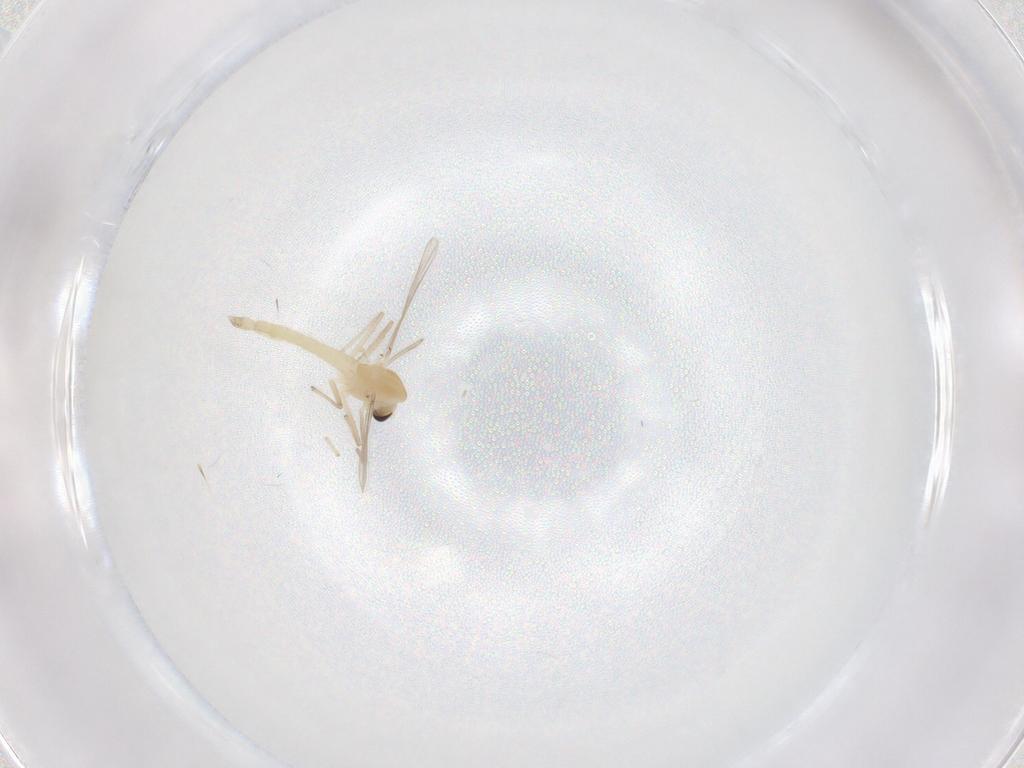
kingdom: Animalia
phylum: Arthropoda
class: Insecta
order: Diptera
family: Chironomidae
